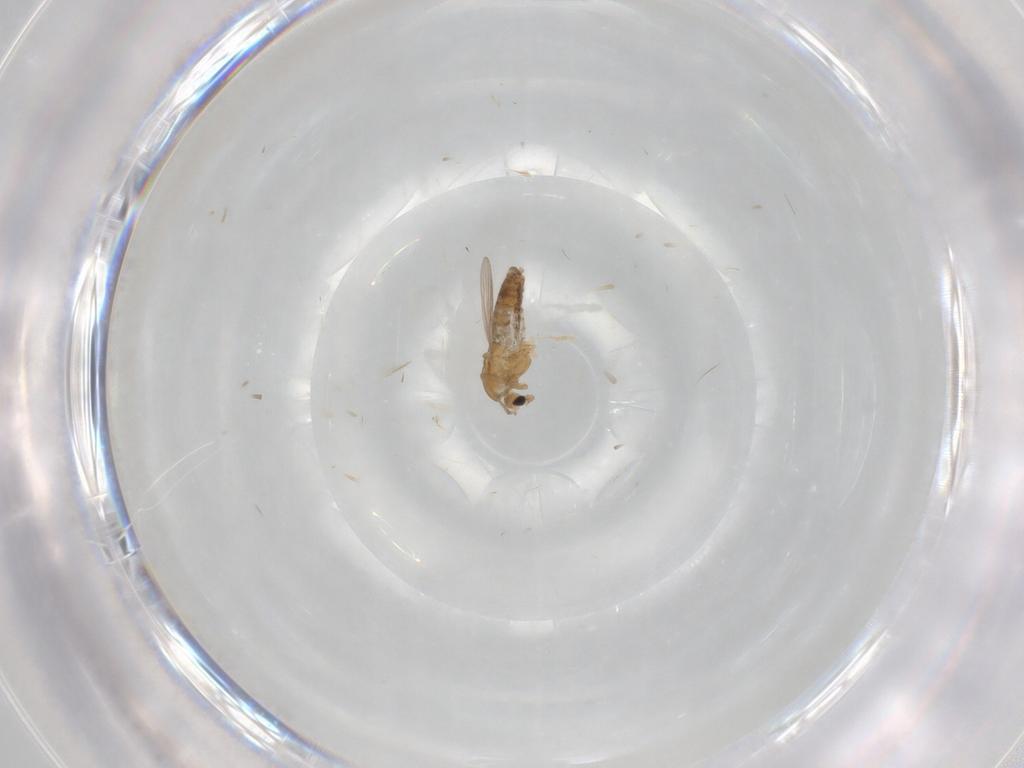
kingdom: Animalia
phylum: Arthropoda
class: Insecta
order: Diptera
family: Chironomidae
